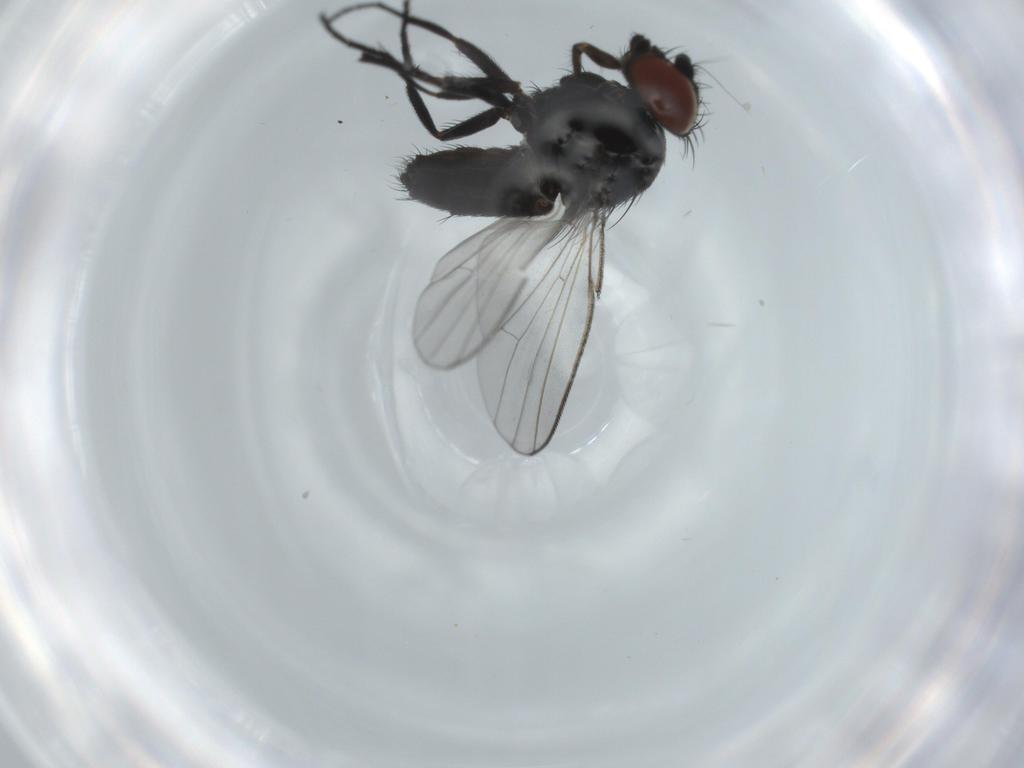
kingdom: Animalia
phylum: Arthropoda
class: Insecta
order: Diptera
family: Milichiidae
